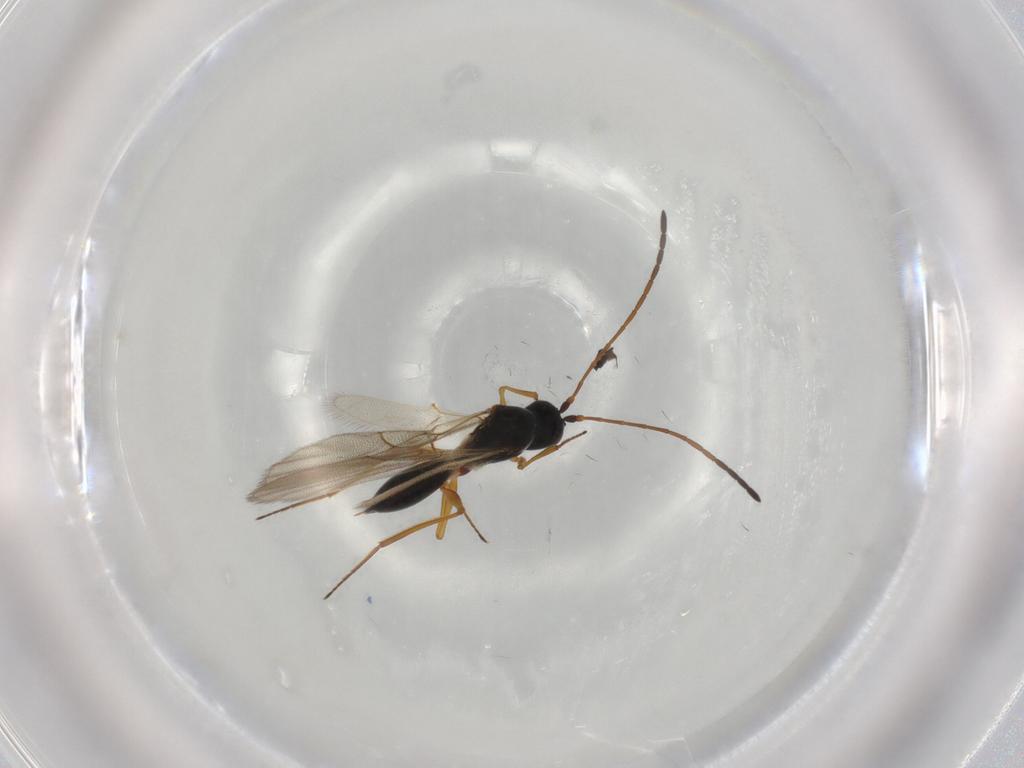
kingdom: Animalia
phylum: Arthropoda
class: Insecta
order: Hymenoptera
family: Figitidae
